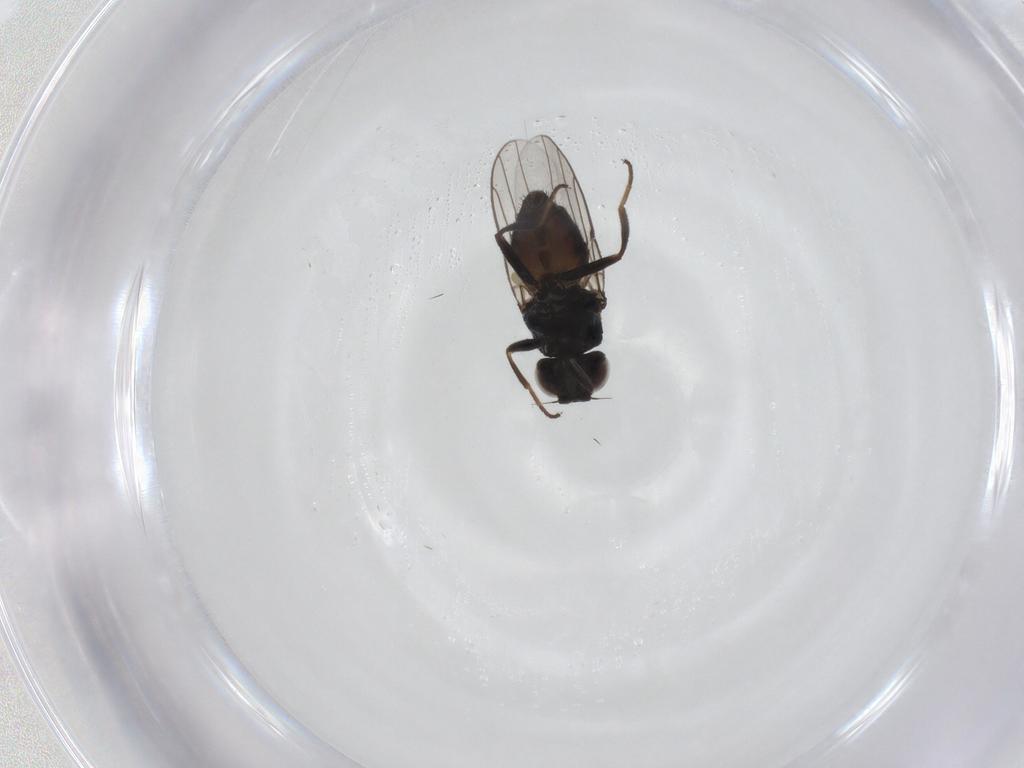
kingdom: Animalia
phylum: Arthropoda
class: Insecta
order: Diptera
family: Chloropidae
